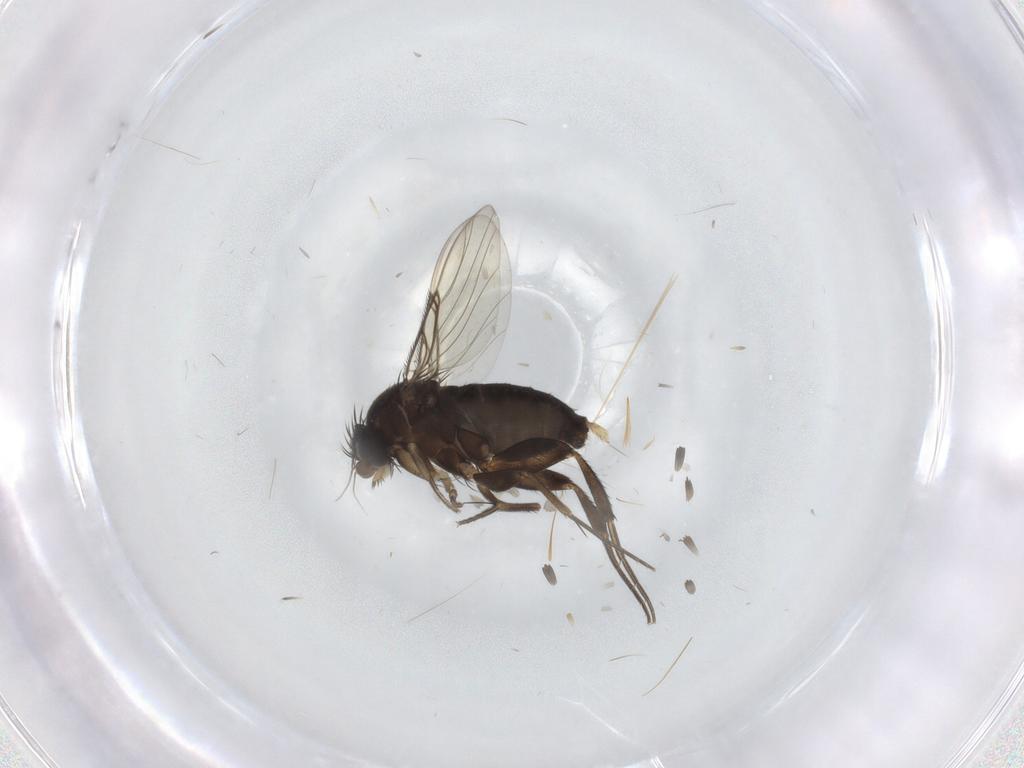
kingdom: Animalia
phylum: Arthropoda
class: Insecta
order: Diptera
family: Phoridae
